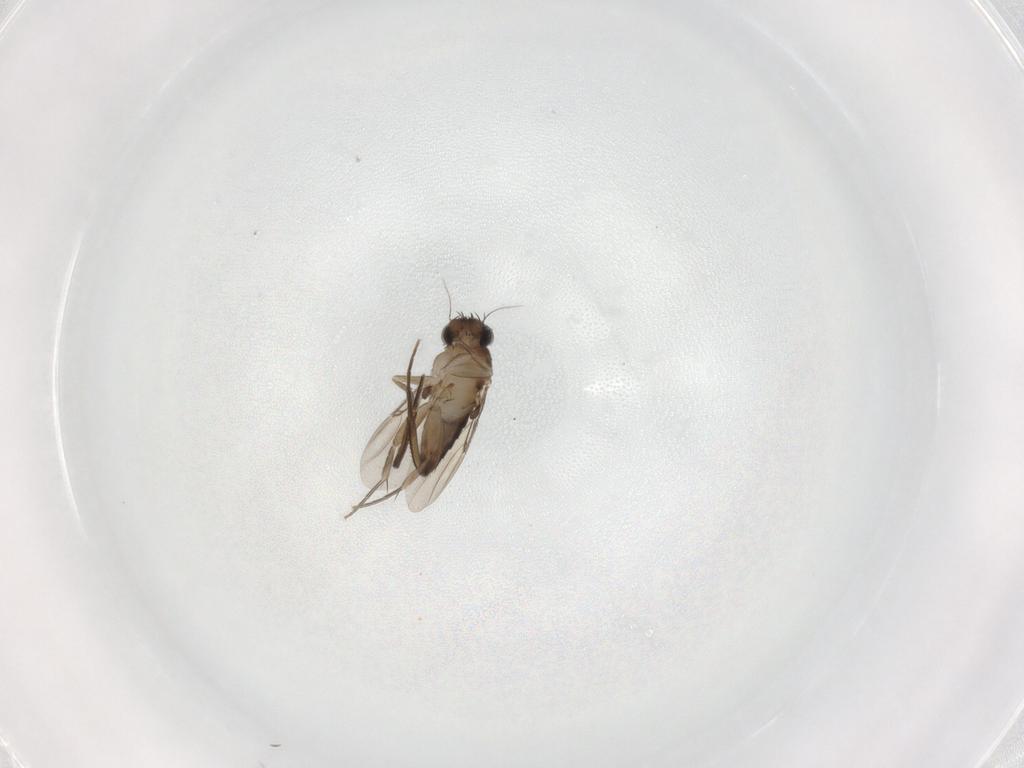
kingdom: Animalia
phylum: Arthropoda
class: Insecta
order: Diptera
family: Phoridae
